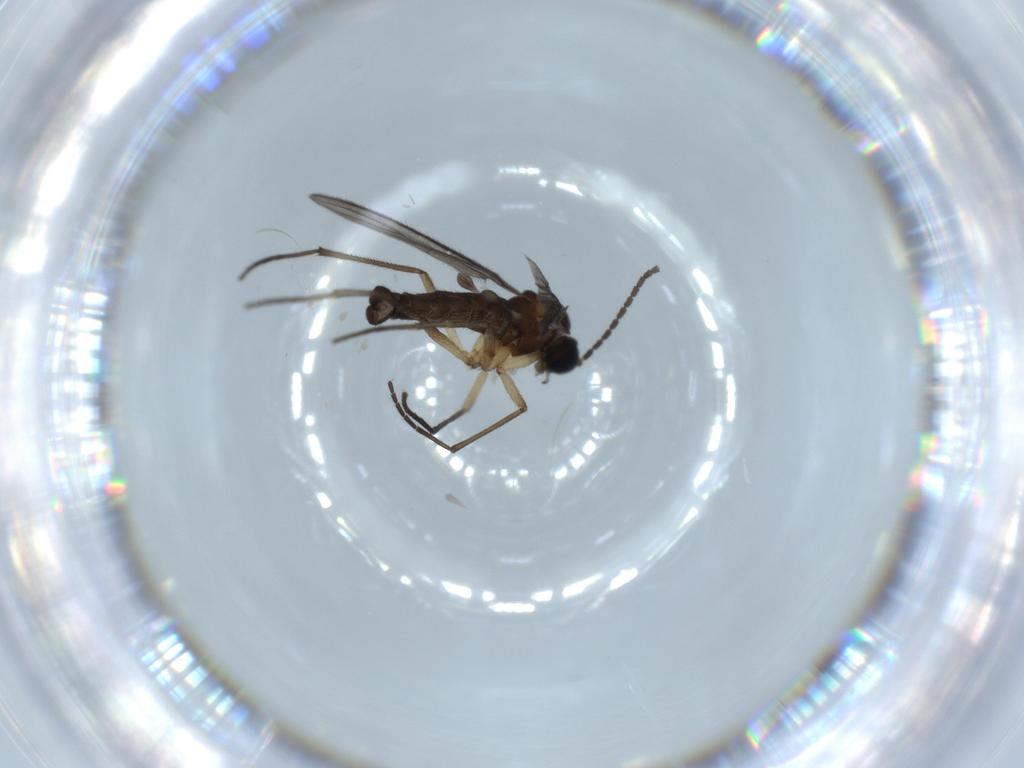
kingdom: Animalia
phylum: Arthropoda
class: Insecta
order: Diptera
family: Sciaridae
